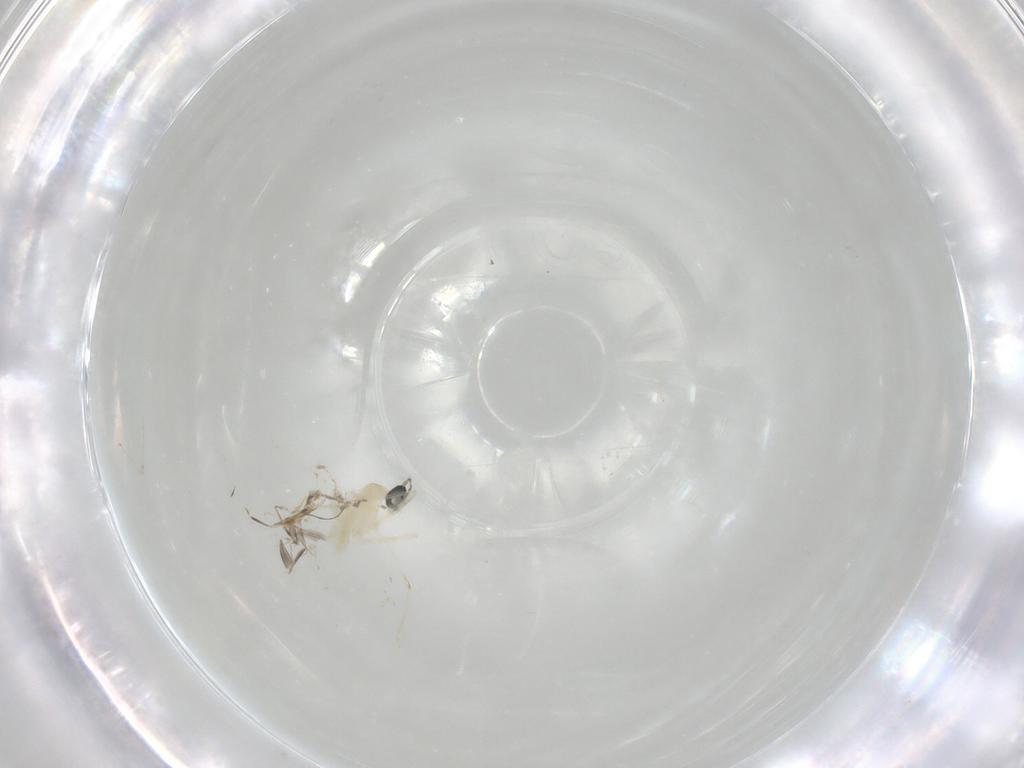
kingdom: Animalia
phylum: Arthropoda
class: Insecta
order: Diptera
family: Cecidomyiidae
